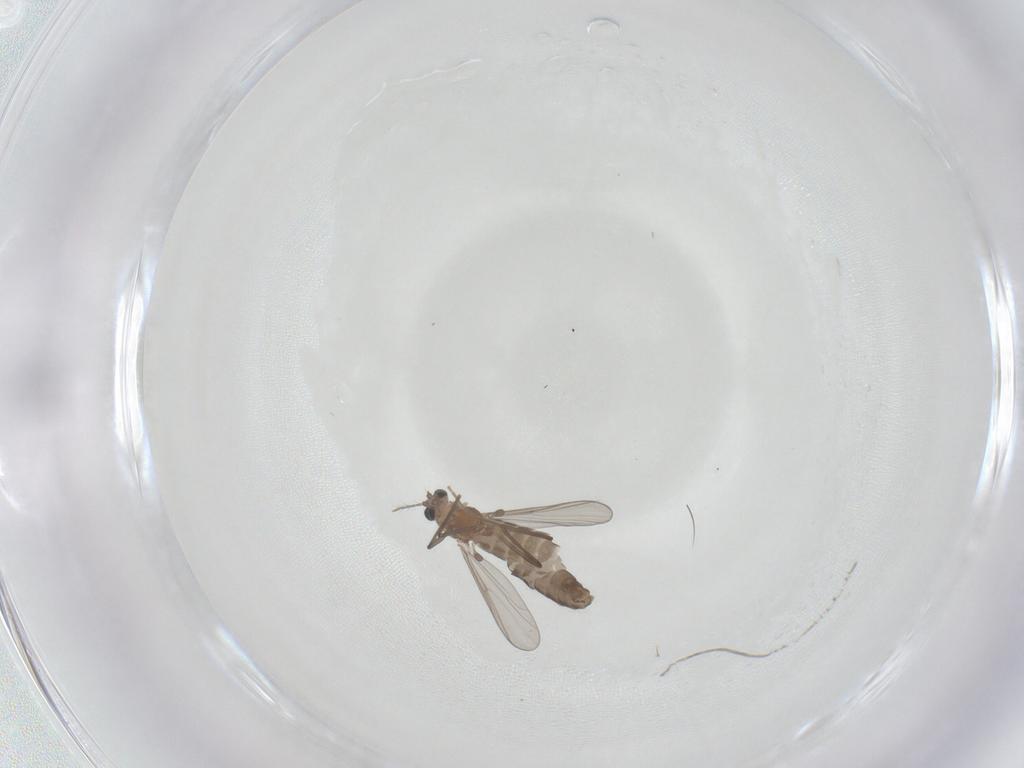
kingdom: Animalia
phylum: Arthropoda
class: Insecta
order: Diptera
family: Chironomidae
